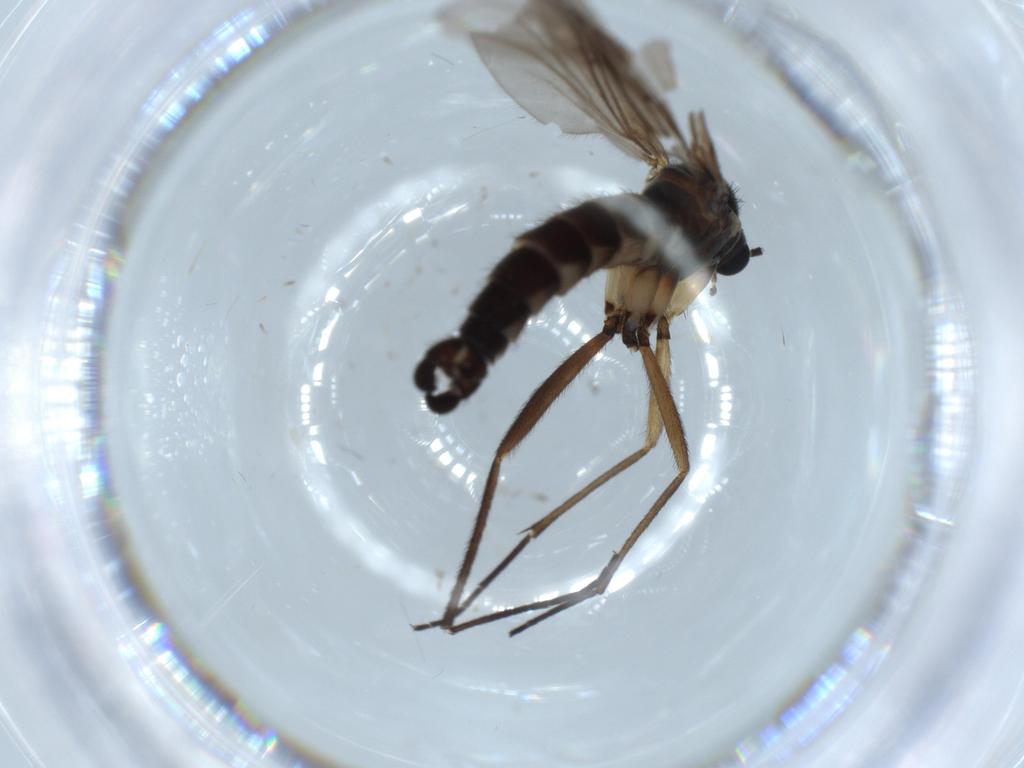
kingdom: Animalia
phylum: Arthropoda
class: Insecta
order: Diptera
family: Sciaridae
